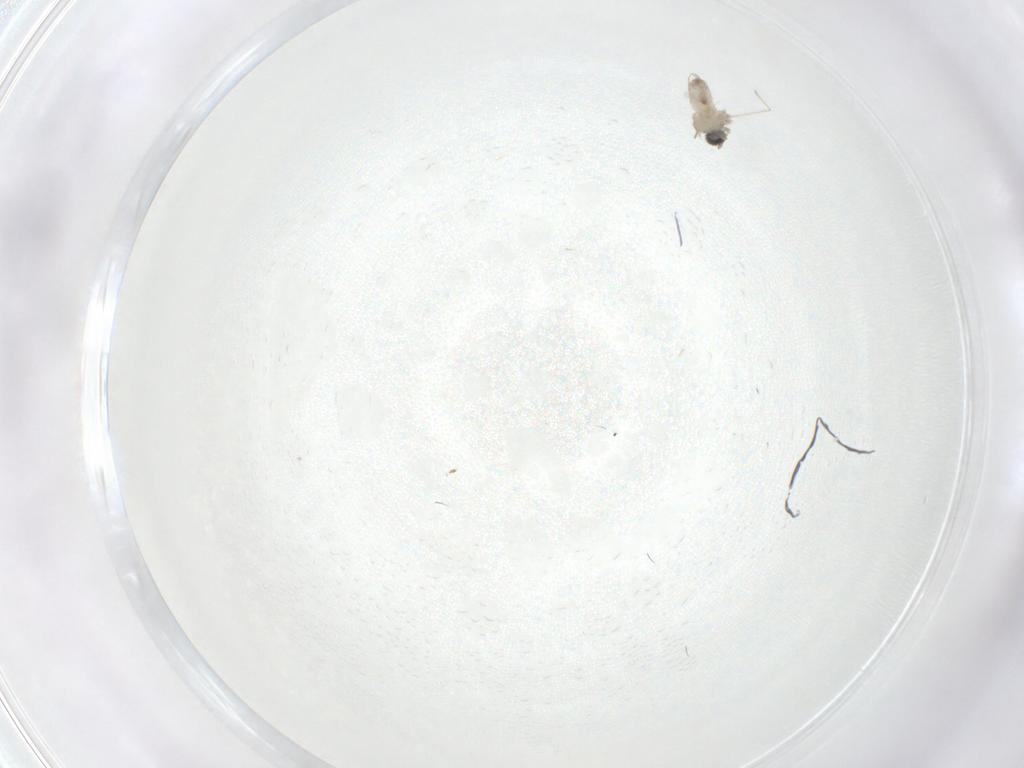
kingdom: Animalia
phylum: Arthropoda
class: Insecta
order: Diptera
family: Cecidomyiidae
